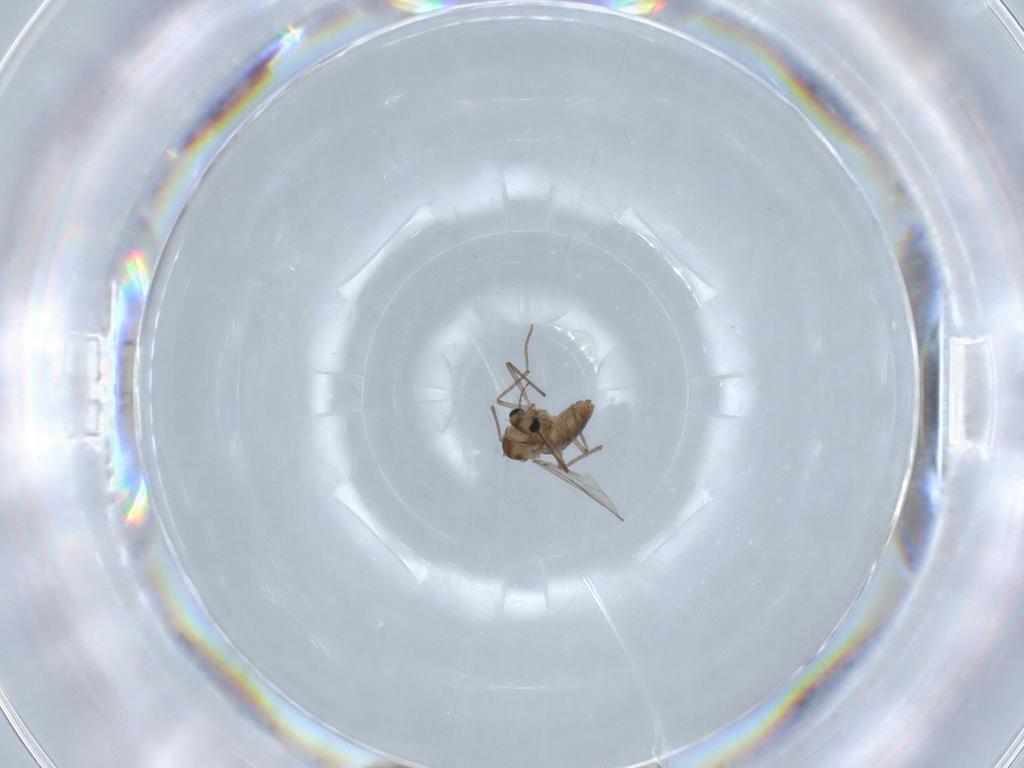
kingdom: Animalia
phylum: Arthropoda
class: Insecta
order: Diptera
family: Chironomidae
